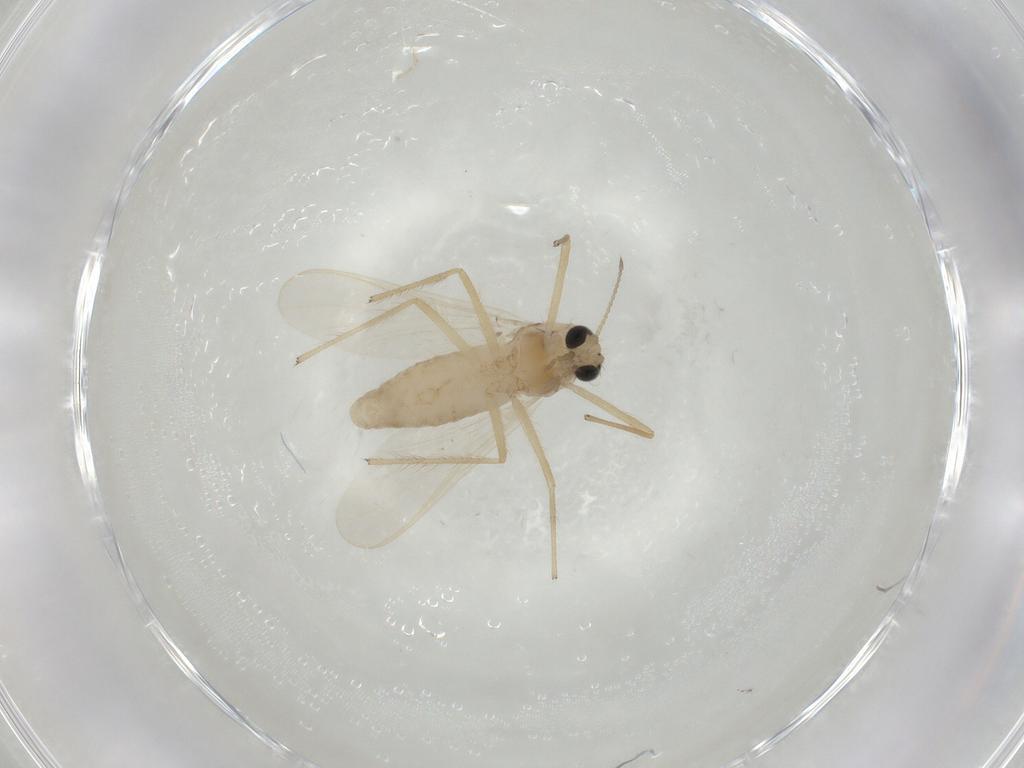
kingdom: Animalia
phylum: Arthropoda
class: Insecta
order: Diptera
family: Chironomidae
